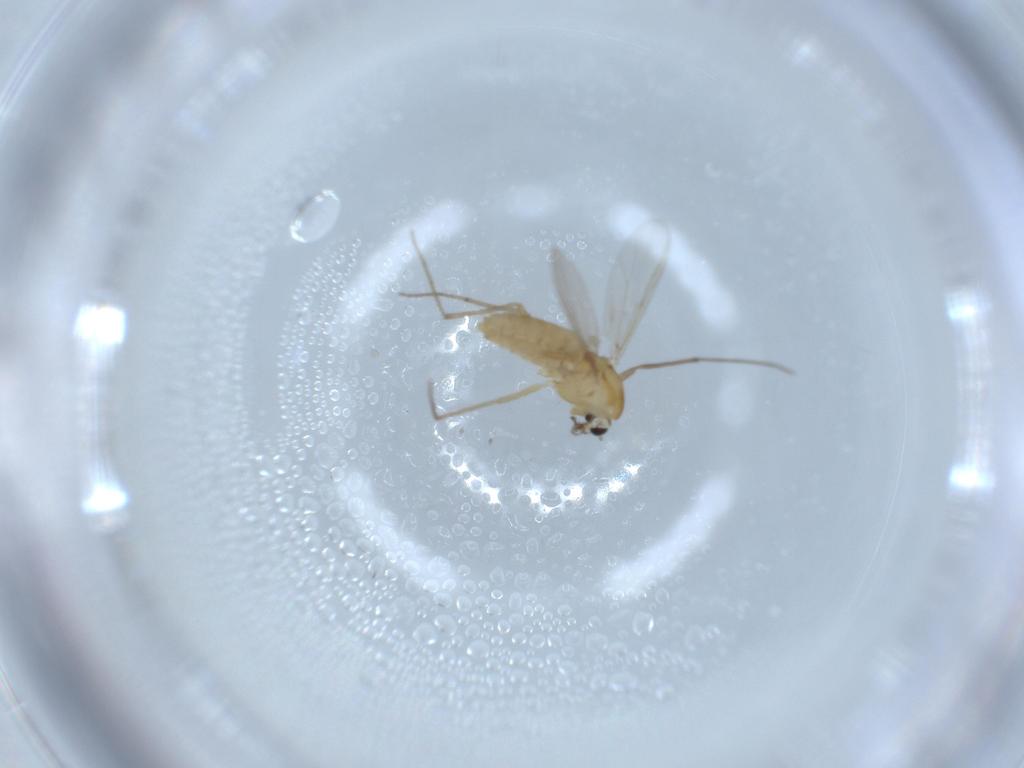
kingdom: Animalia
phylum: Arthropoda
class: Insecta
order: Diptera
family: Chironomidae
